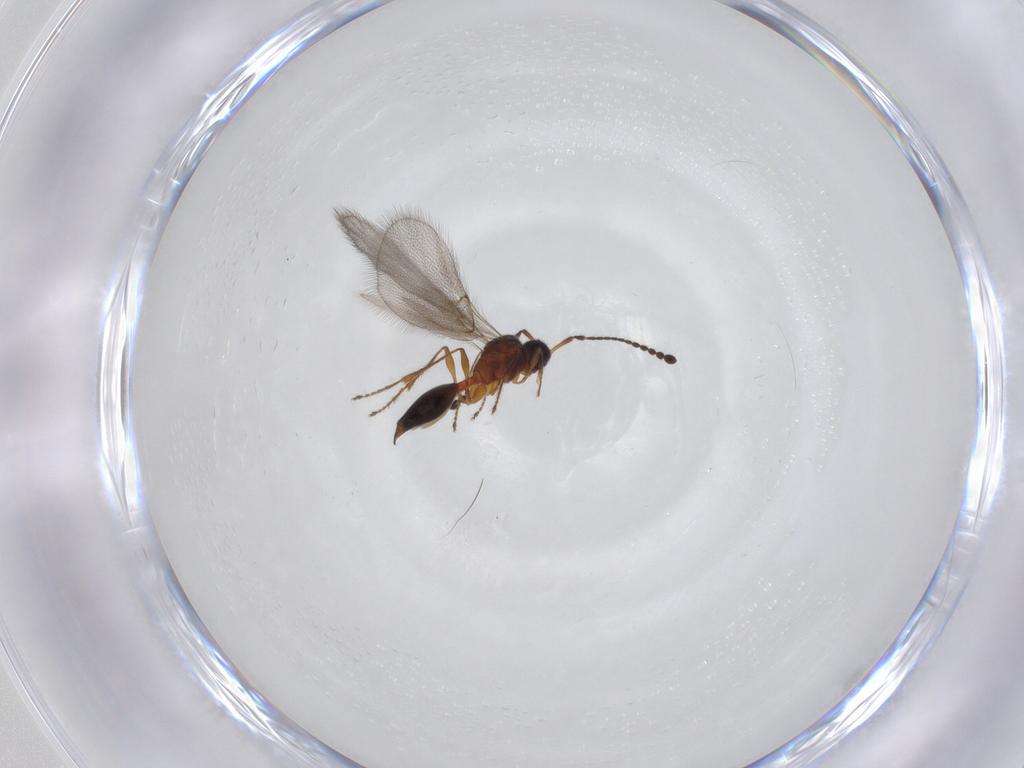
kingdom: Animalia
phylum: Arthropoda
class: Insecta
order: Hymenoptera
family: Diapriidae
